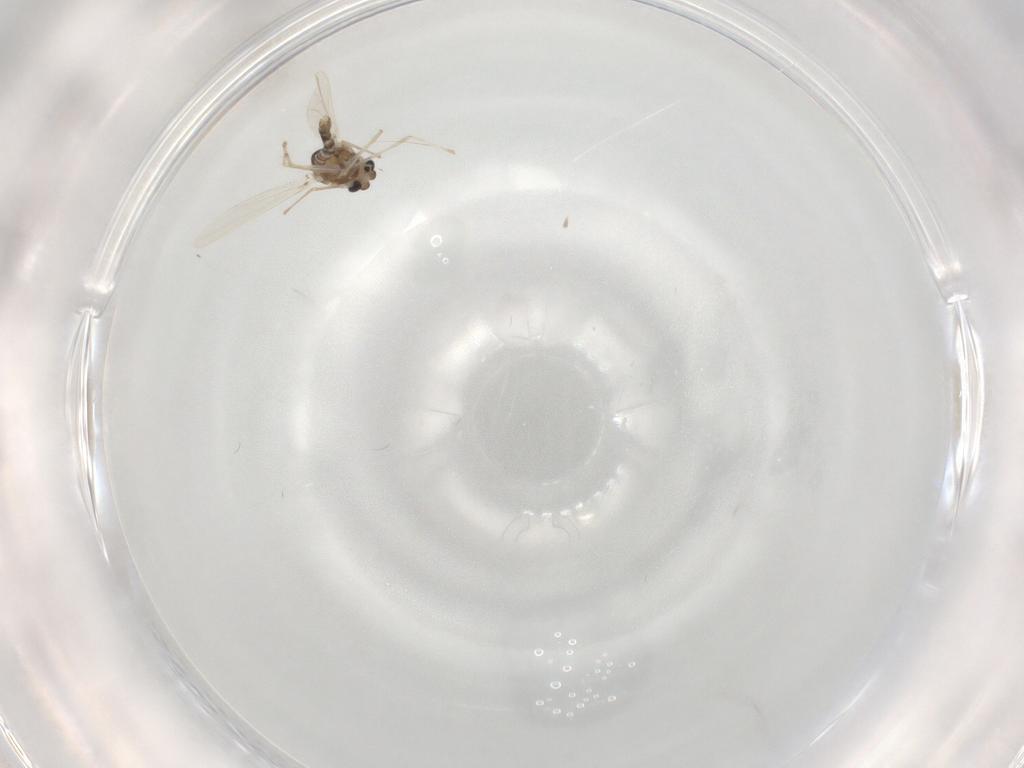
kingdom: Animalia
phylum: Arthropoda
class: Insecta
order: Diptera
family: Chironomidae
